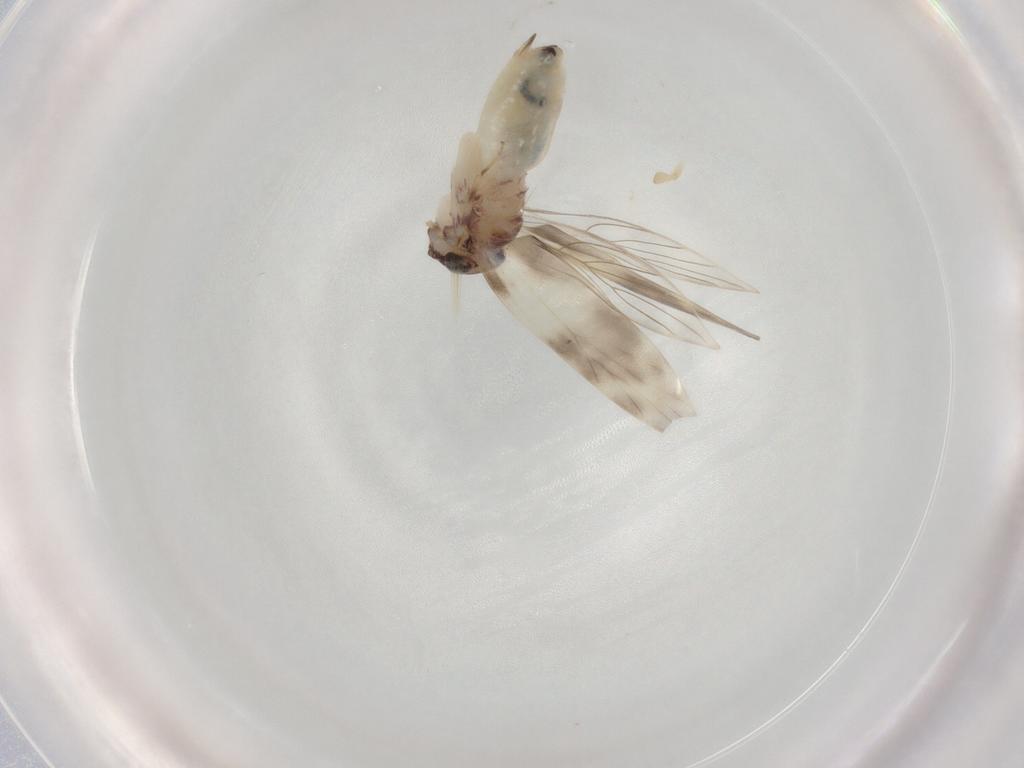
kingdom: Animalia
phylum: Arthropoda
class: Insecta
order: Psocodea
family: Lepidopsocidae
